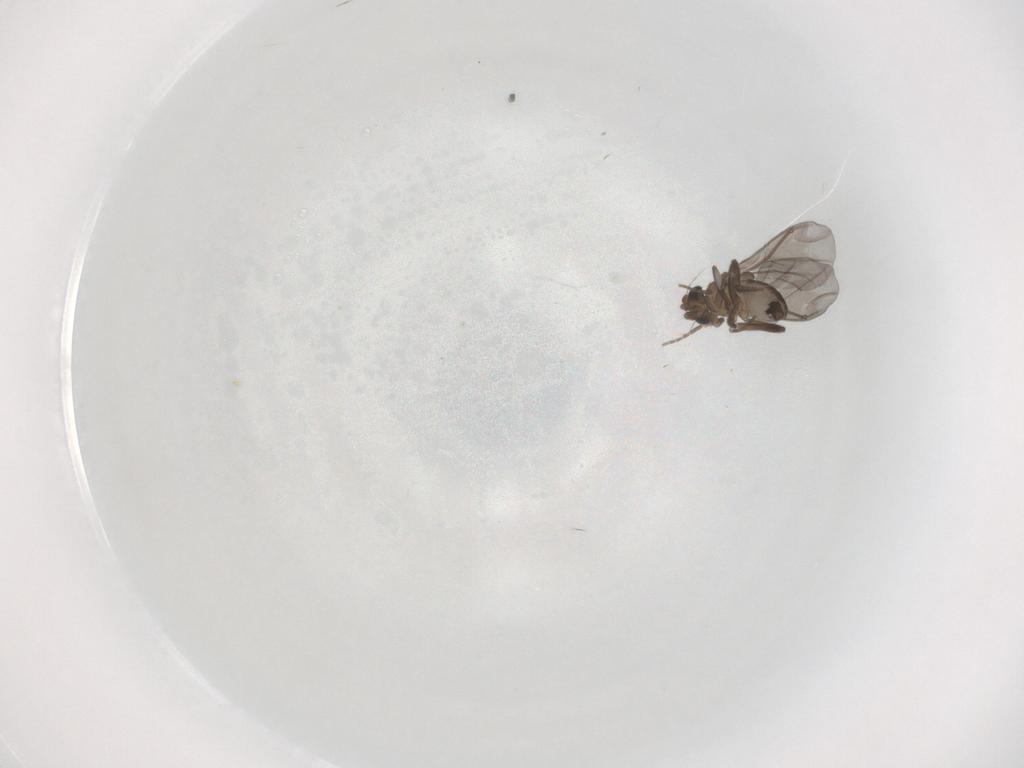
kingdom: Animalia
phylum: Arthropoda
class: Insecta
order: Diptera
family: Phoridae
